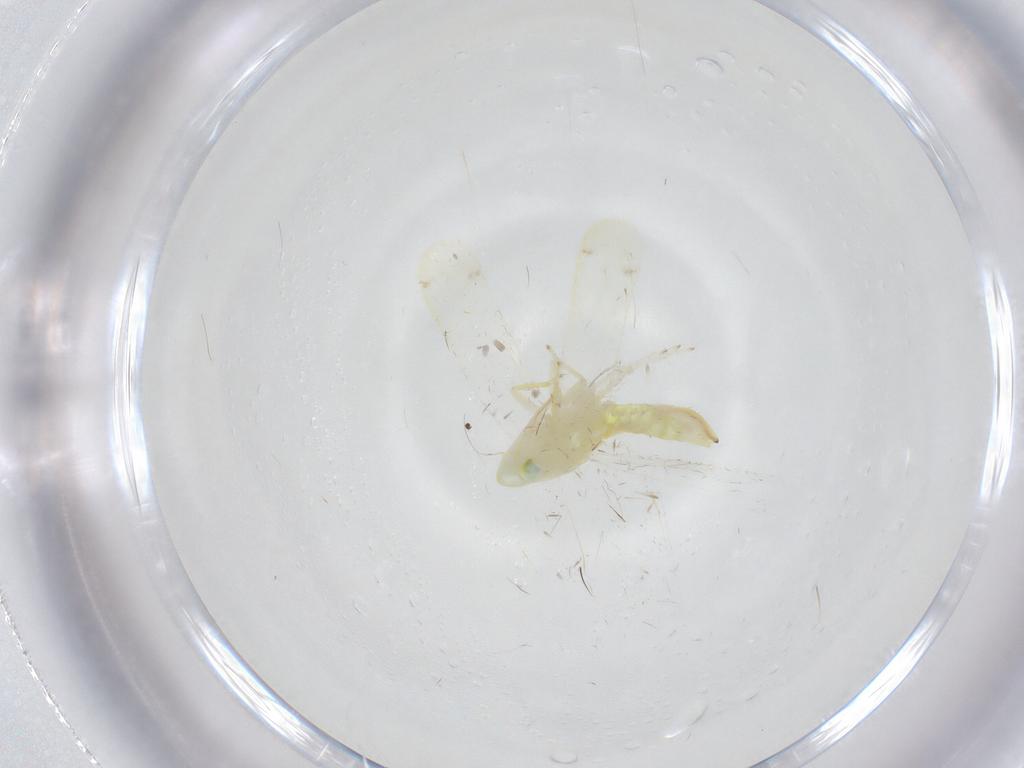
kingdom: Animalia
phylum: Arthropoda
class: Insecta
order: Hemiptera
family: Cicadellidae
